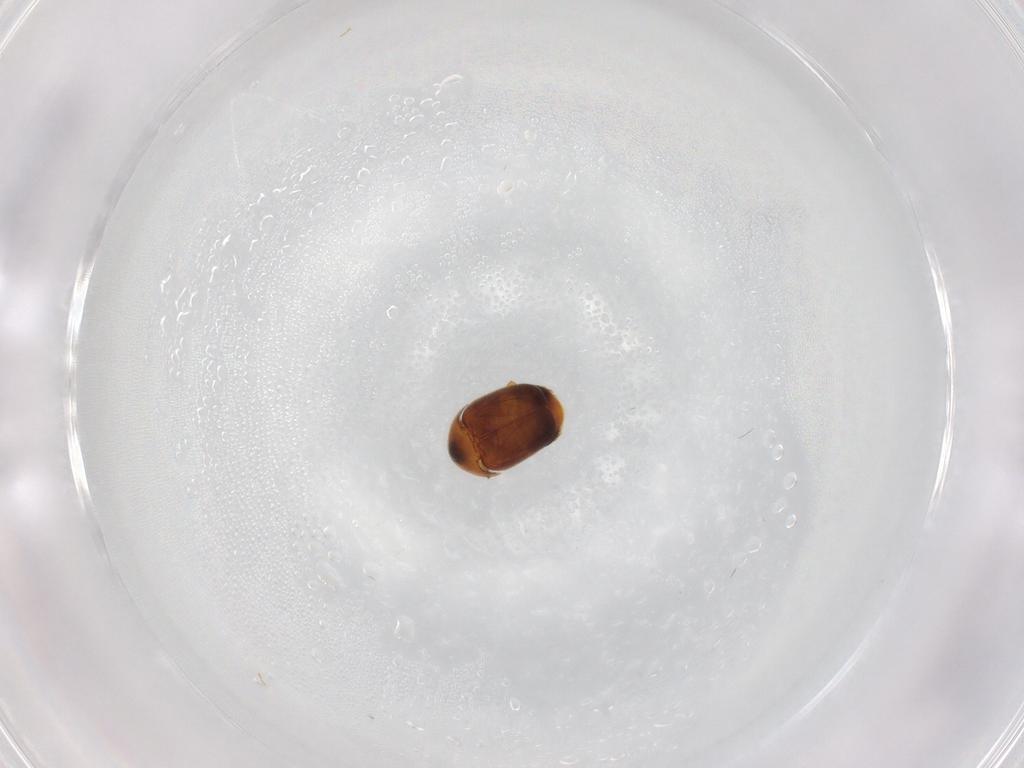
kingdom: Animalia
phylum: Arthropoda
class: Insecta
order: Coleoptera
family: Corylophidae
